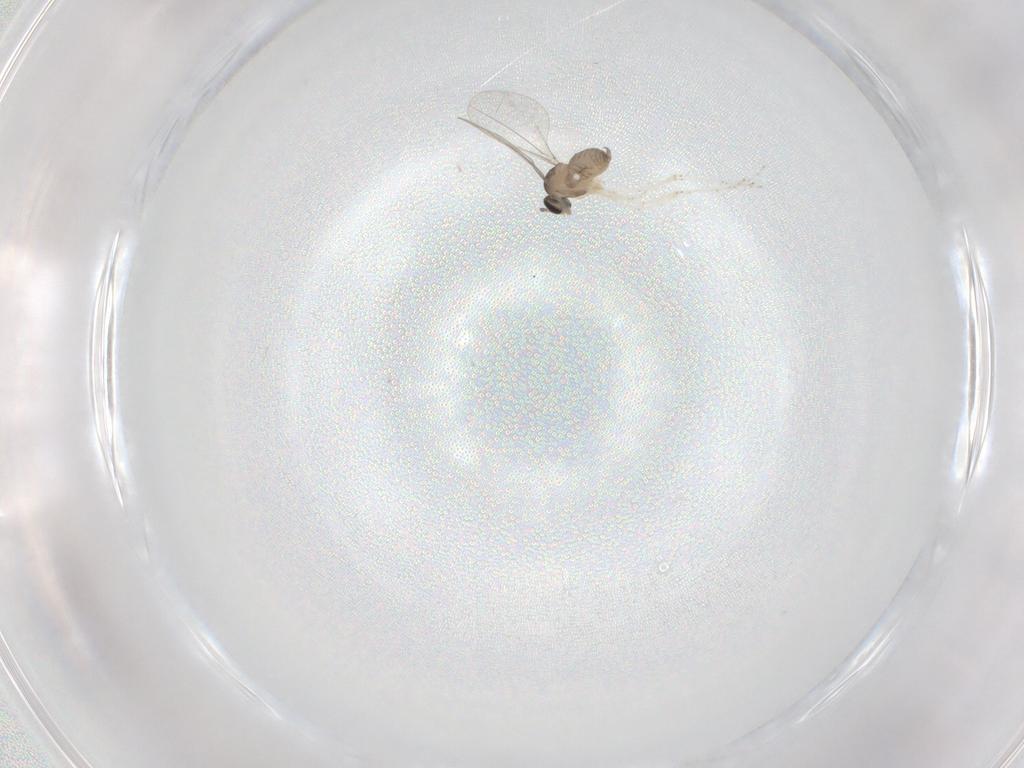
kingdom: Animalia
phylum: Arthropoda
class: Insecta
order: Diptera
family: Cecidomyiidae
